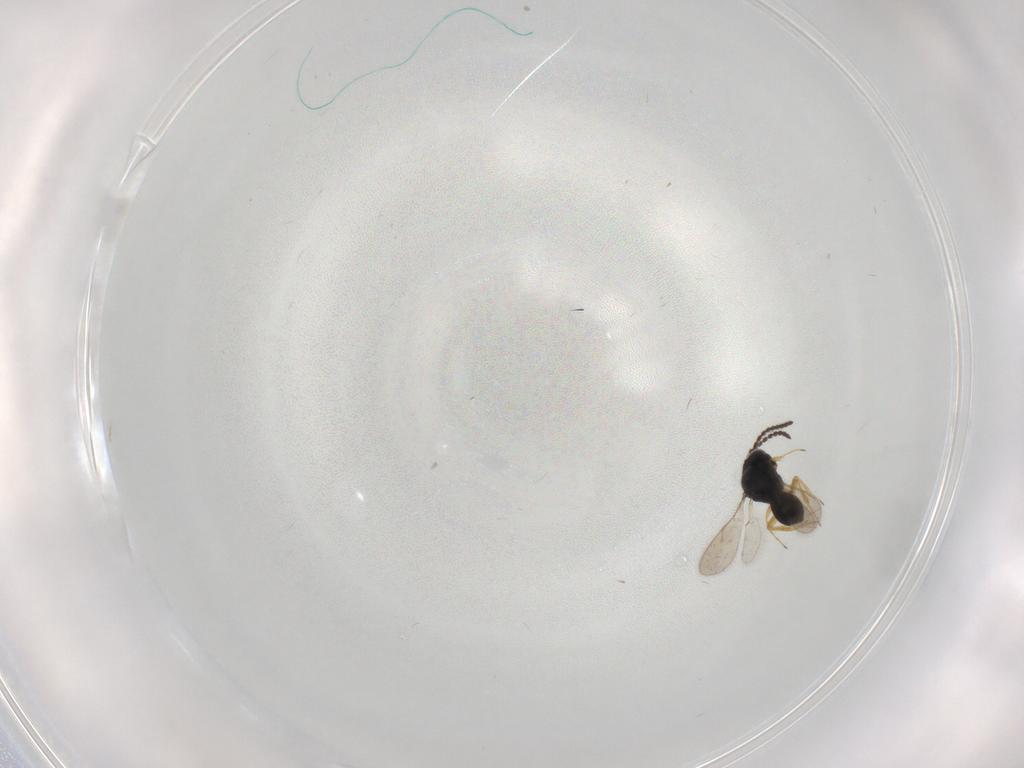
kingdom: Animalia
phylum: Arthropoda
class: Insecta
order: Hymenoptera
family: Scelionidae
